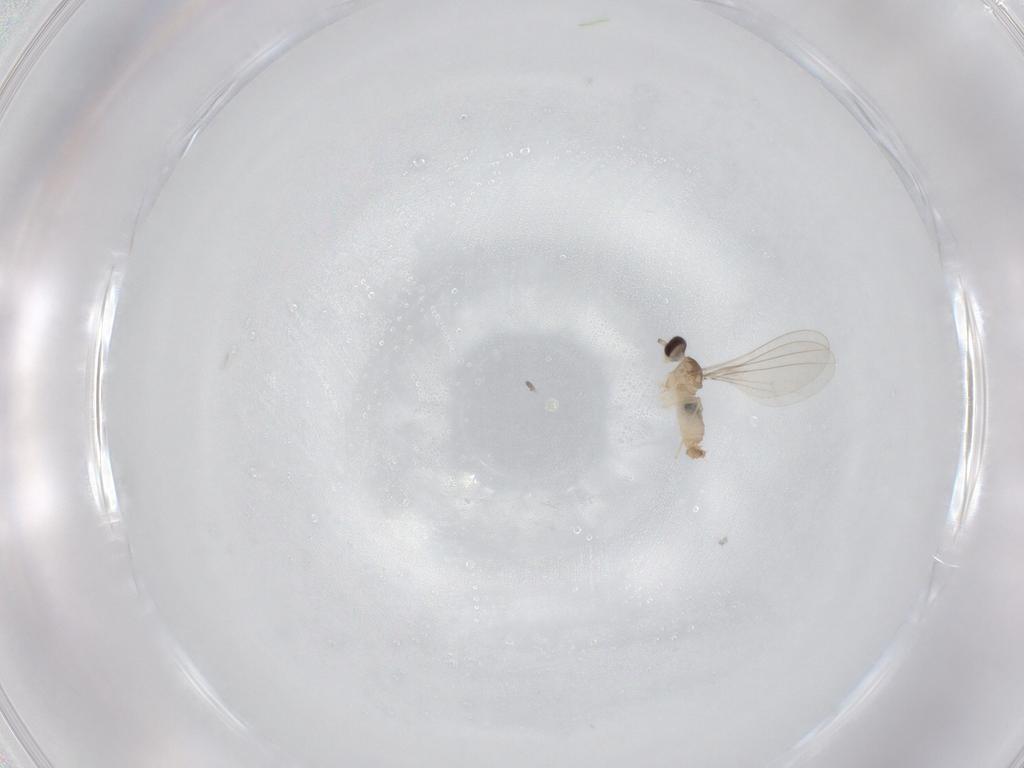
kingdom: Animalia
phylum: Arthropoda
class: Insecta
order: Diptera
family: Cecidomyiidae
